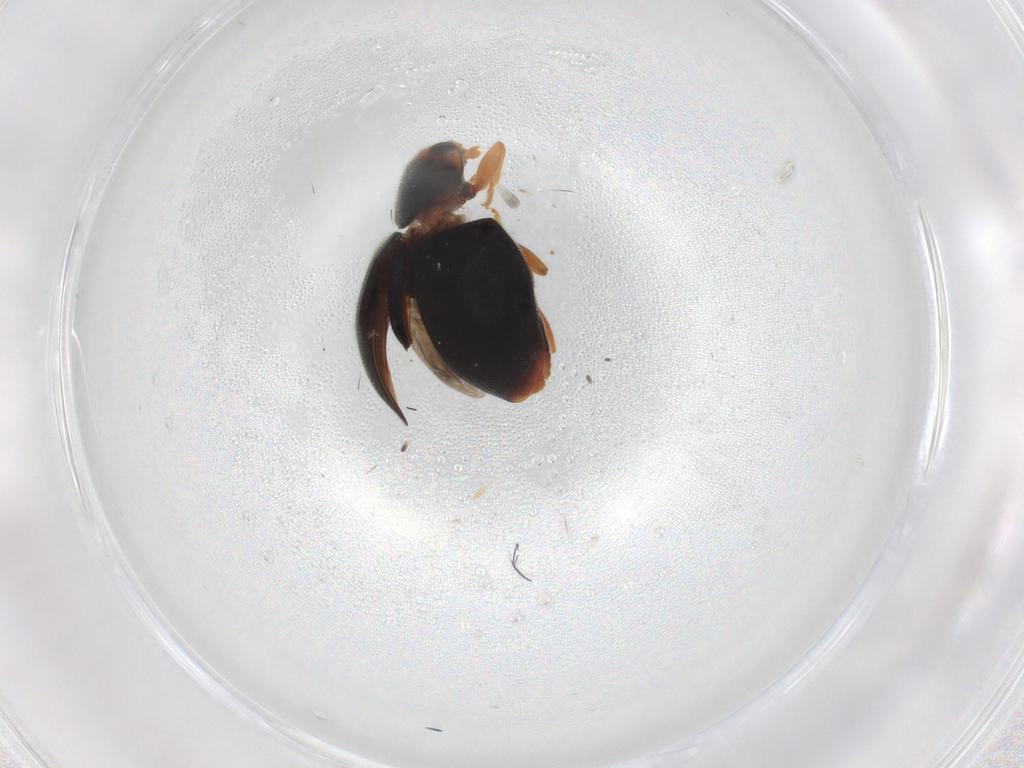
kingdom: Animalia
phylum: Arthropoda
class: Insecta
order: Coleoptera
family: Coccinellidae
